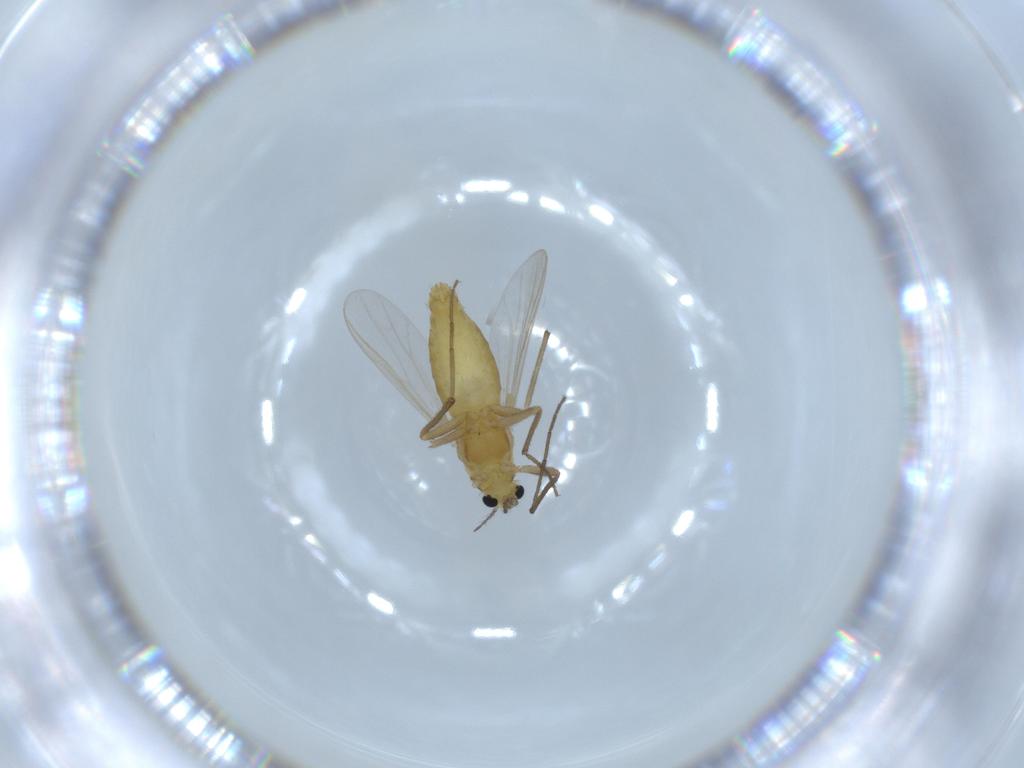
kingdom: Animalia
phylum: Arthropoda
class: Insecta
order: Diptera
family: Chironomidae
